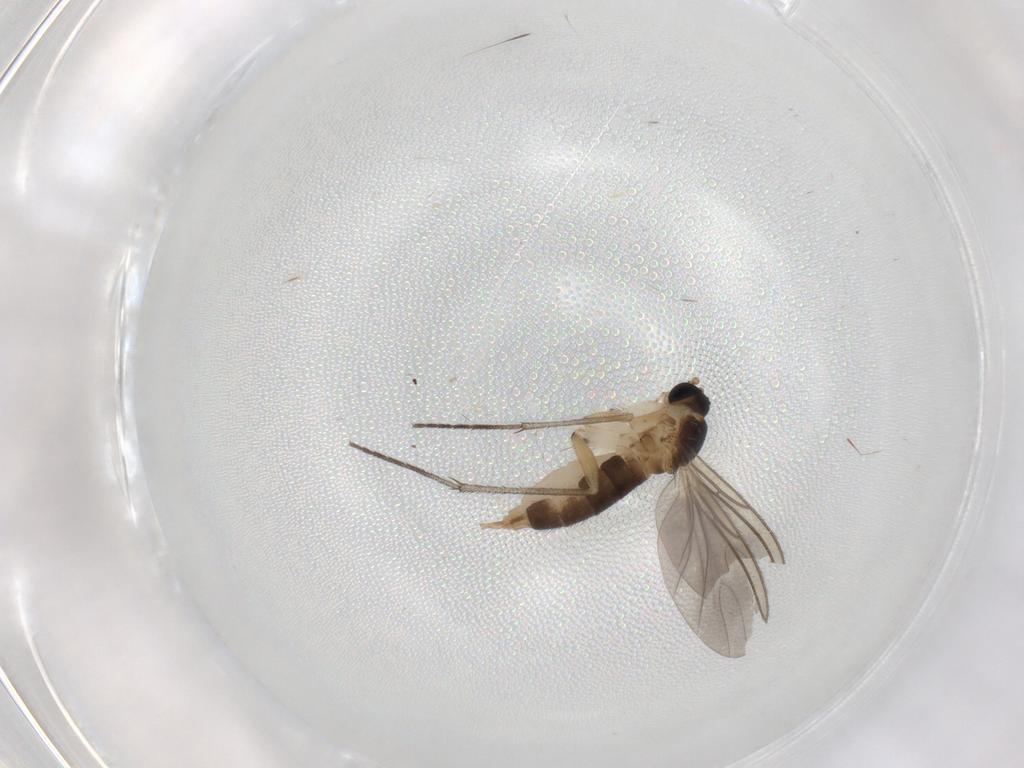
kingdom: Animalia
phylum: Arthropoda
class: Insecta
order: Diptera
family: Sciaridae
